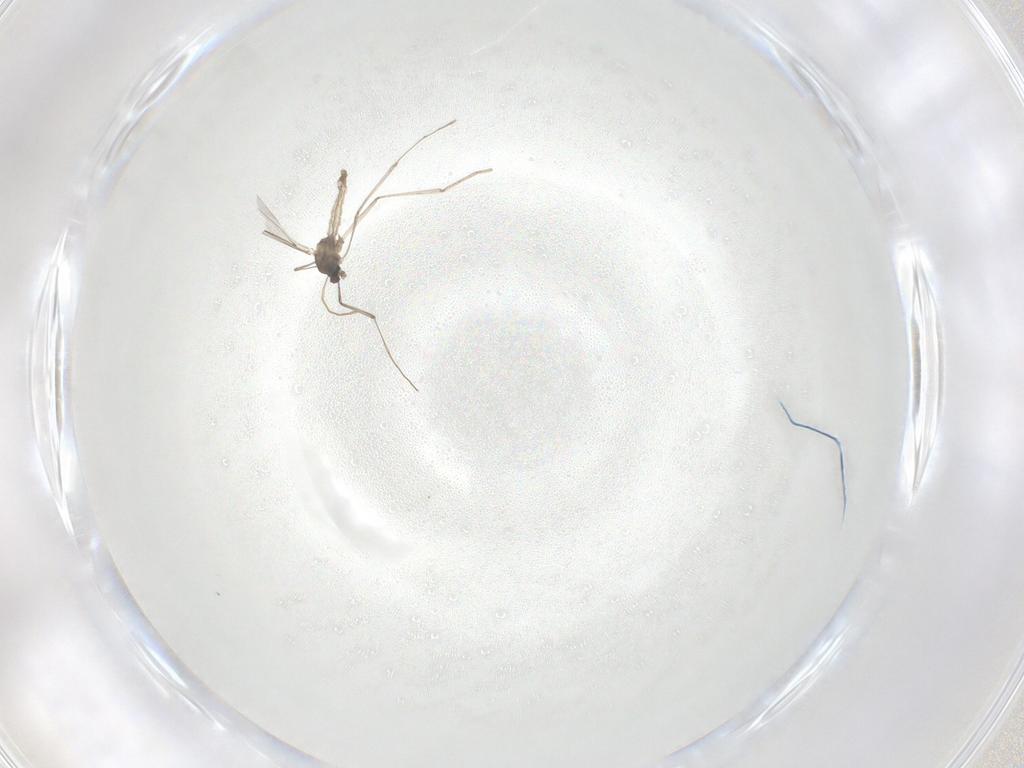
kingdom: Animalia
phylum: Arthropoda
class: Insecta
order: Diptera
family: Cecidomyiidae
